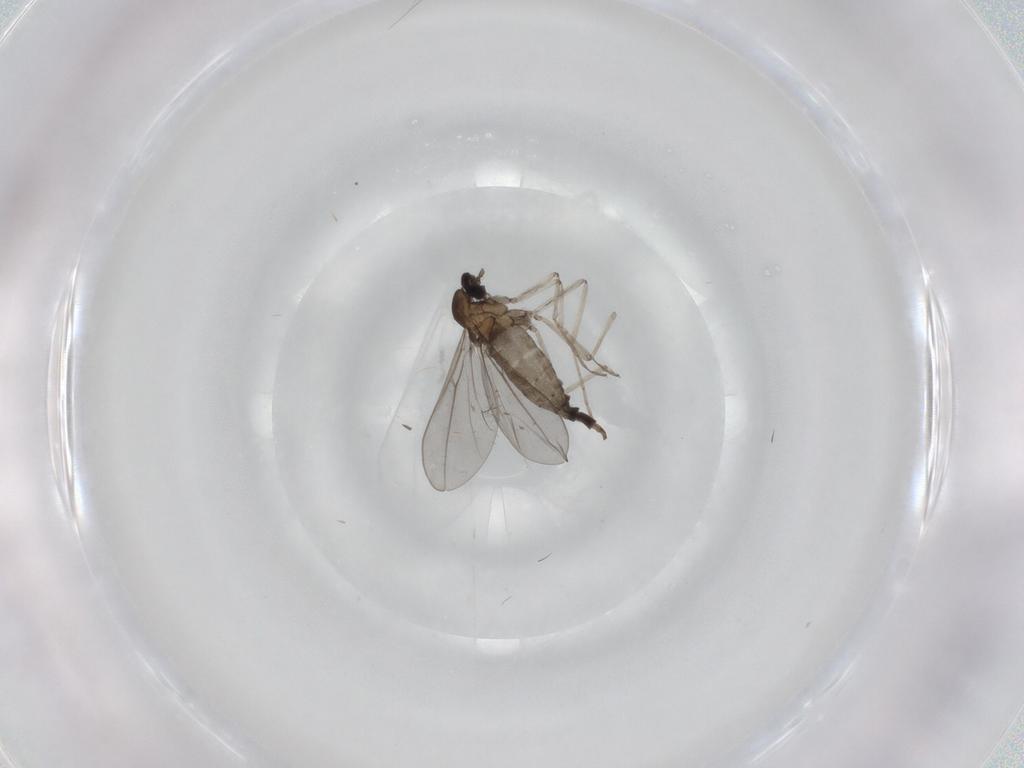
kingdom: Animalia
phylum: Arthropoda
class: Insecta
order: Diptera
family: Cecidomyiidae
